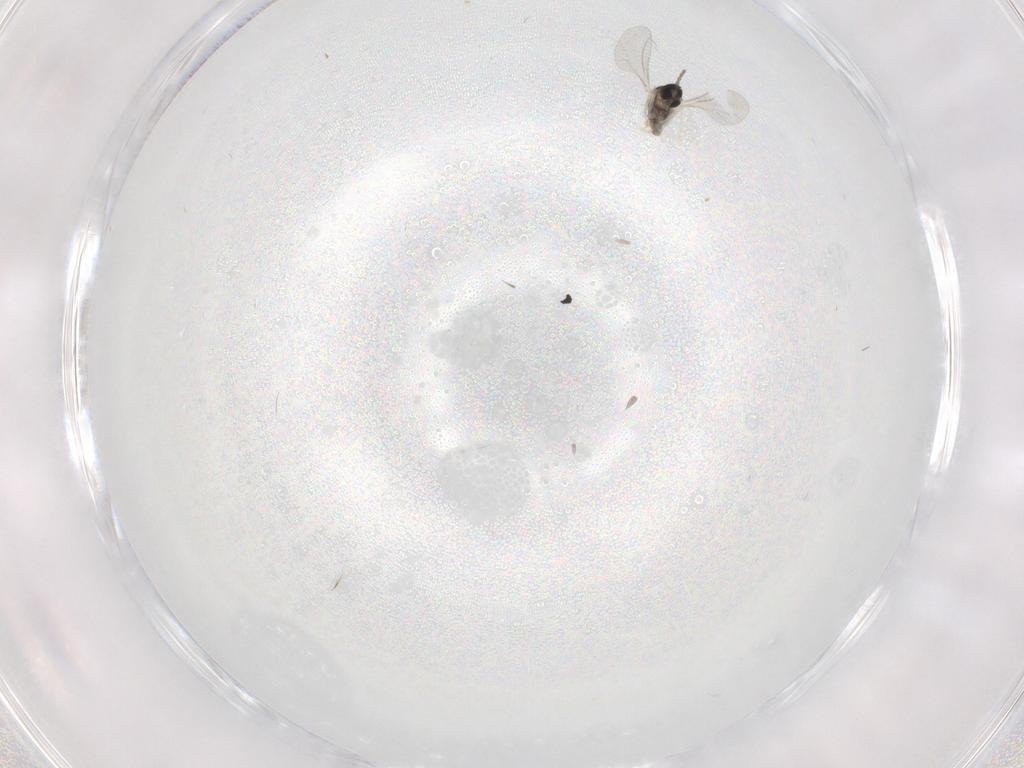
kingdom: Animalia
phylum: Arthropoda
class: Insecta
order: Diptera
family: Cecidomyiidae
